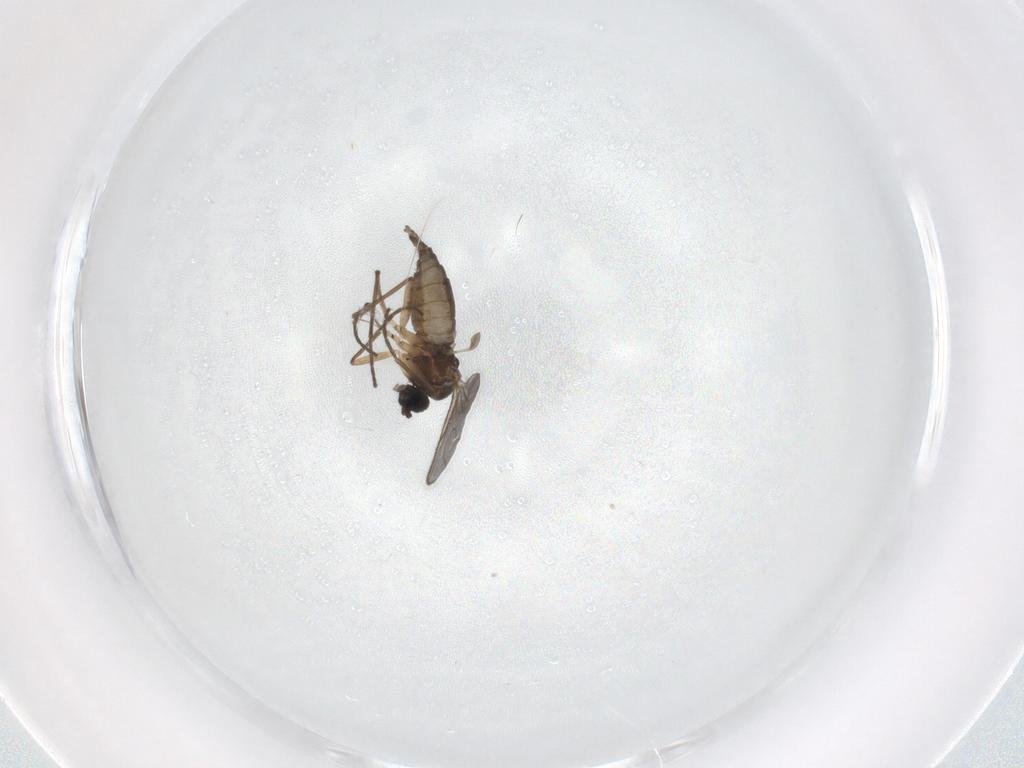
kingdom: Animalia
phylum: Arthropoda
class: Insecta
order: Diptera
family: Sciaridae
